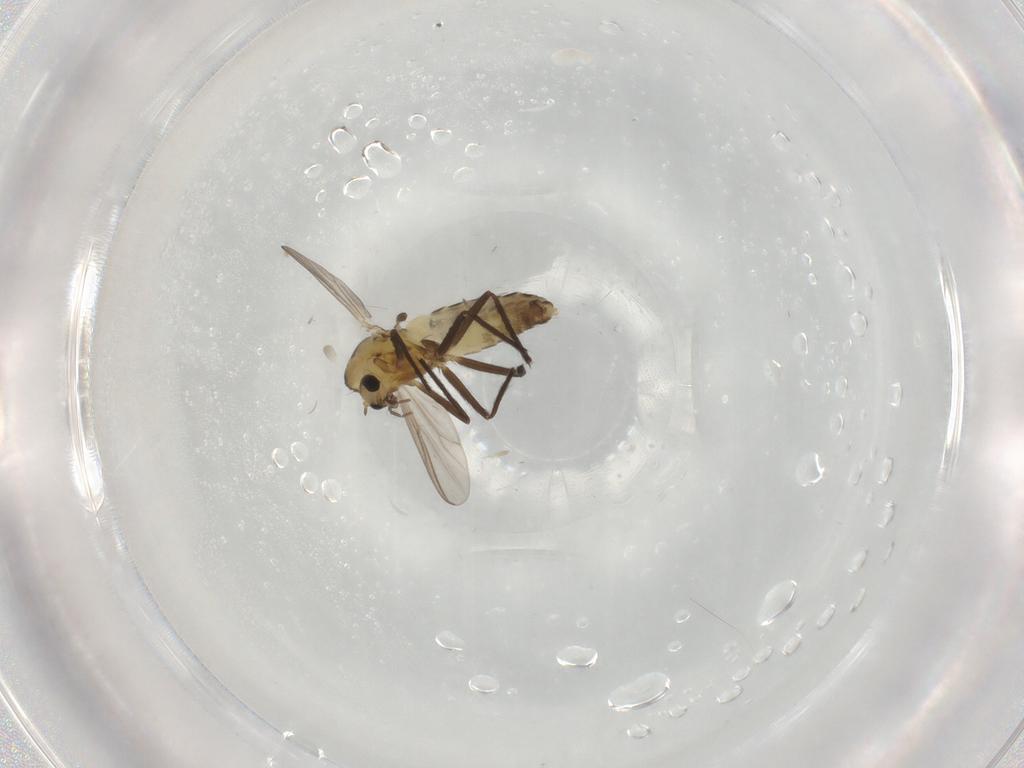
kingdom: Animalia
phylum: Arthropoda
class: Insecta
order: Diptera
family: Chironomidae
